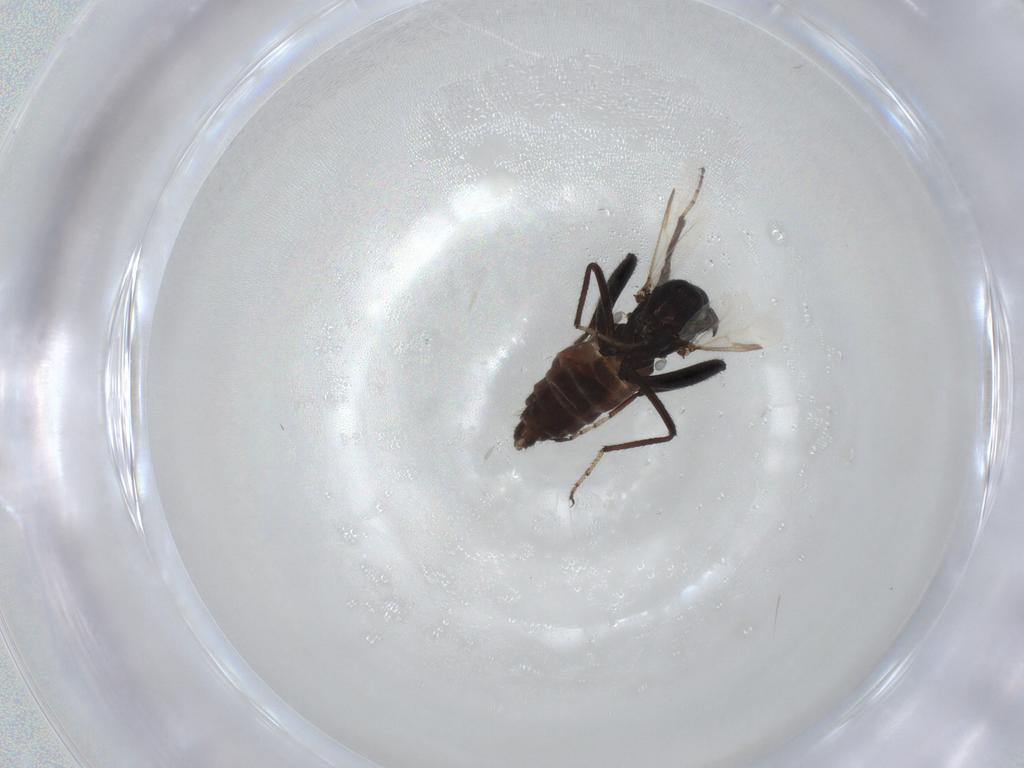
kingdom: Animalia
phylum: Arthropoda
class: Insecta
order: Diptera
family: Ceratopogonidae
